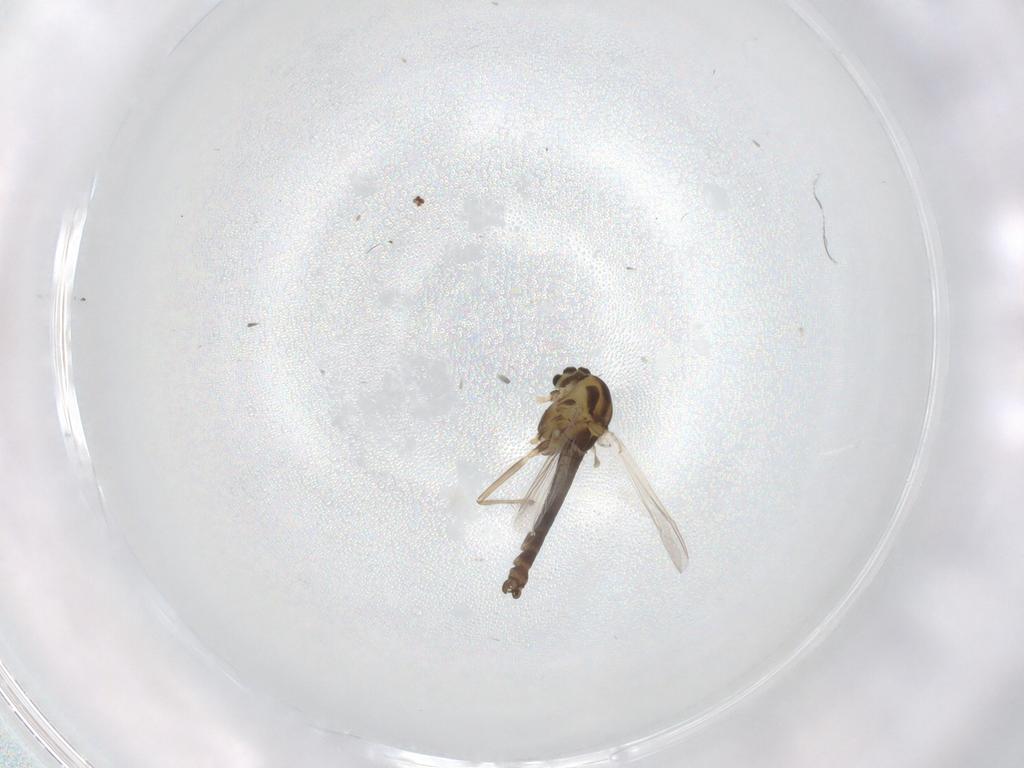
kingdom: Animalia
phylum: Arthropoda
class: Insecta
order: Diptera
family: Chironomidae
